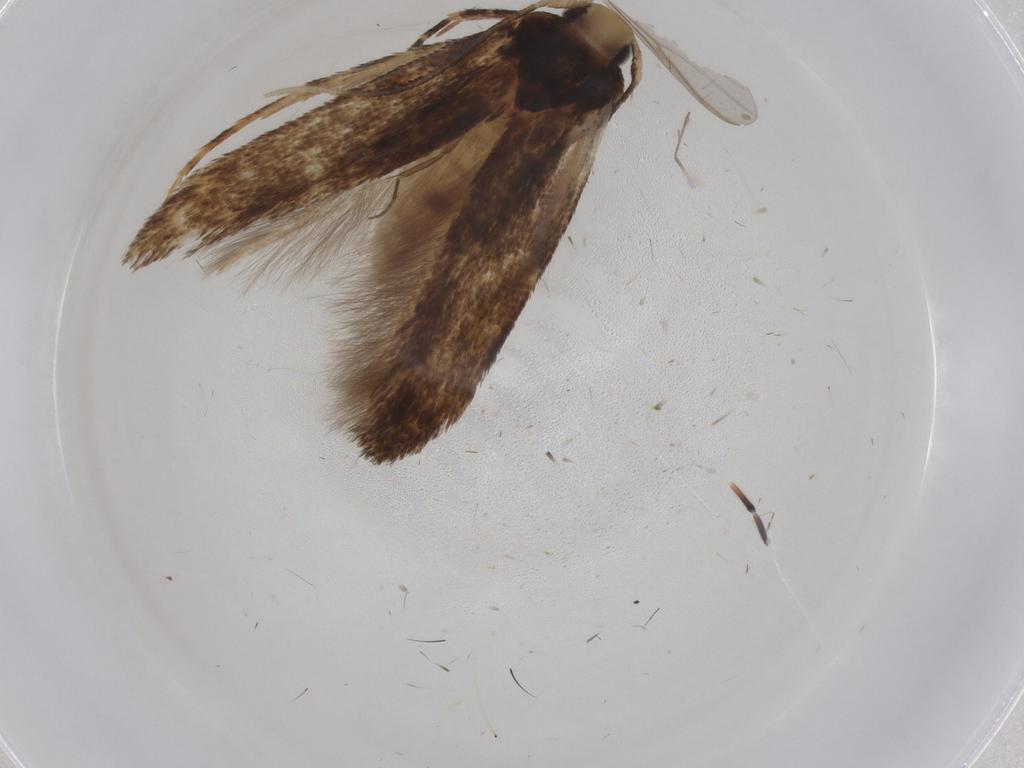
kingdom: Animalia
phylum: Arthropoda
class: Insecta
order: Lepidoptera
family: Cosmopterigidae
